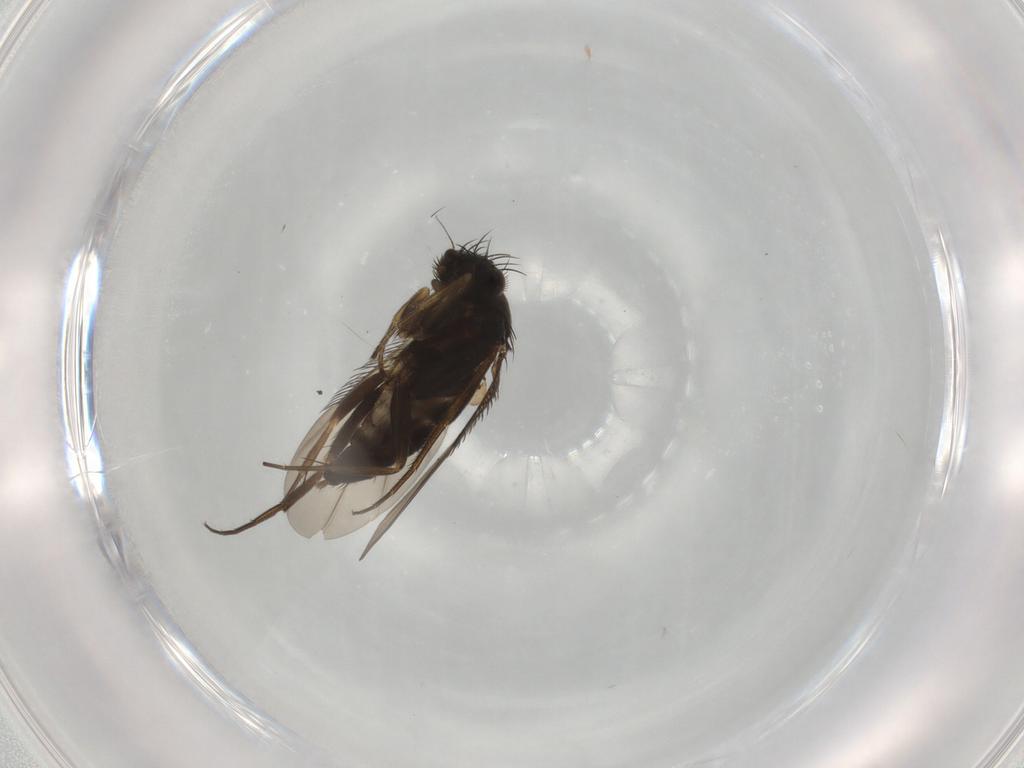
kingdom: Animalia
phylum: Arthropoda
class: Insecta
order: Diptera
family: Phoridae
